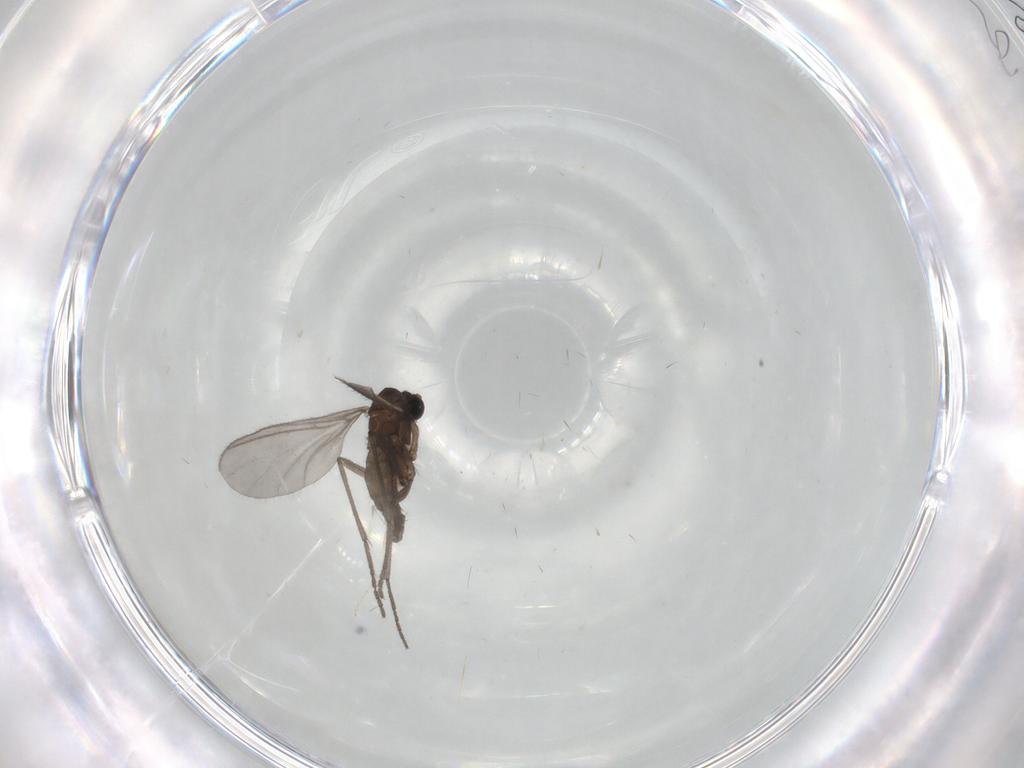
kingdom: Animalia
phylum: Arthropoda
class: Insecta
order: Diptera
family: Sciaridae
